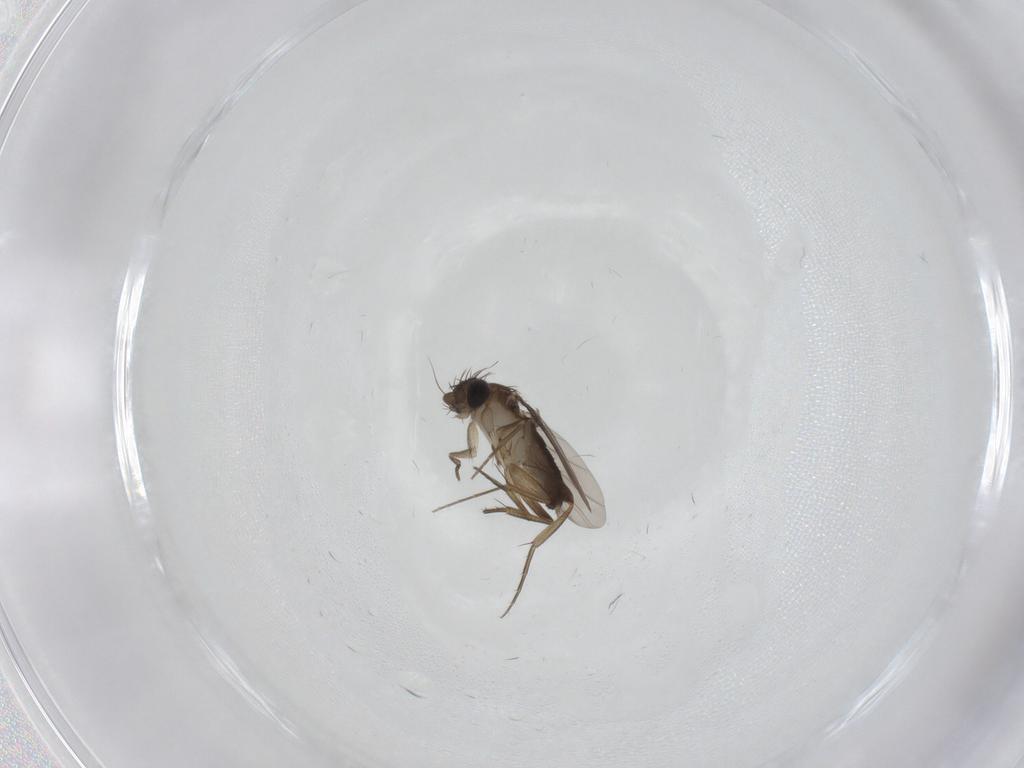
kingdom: Animalia
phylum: Arthropoda
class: Insecta
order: Diptera
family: Phoridae
